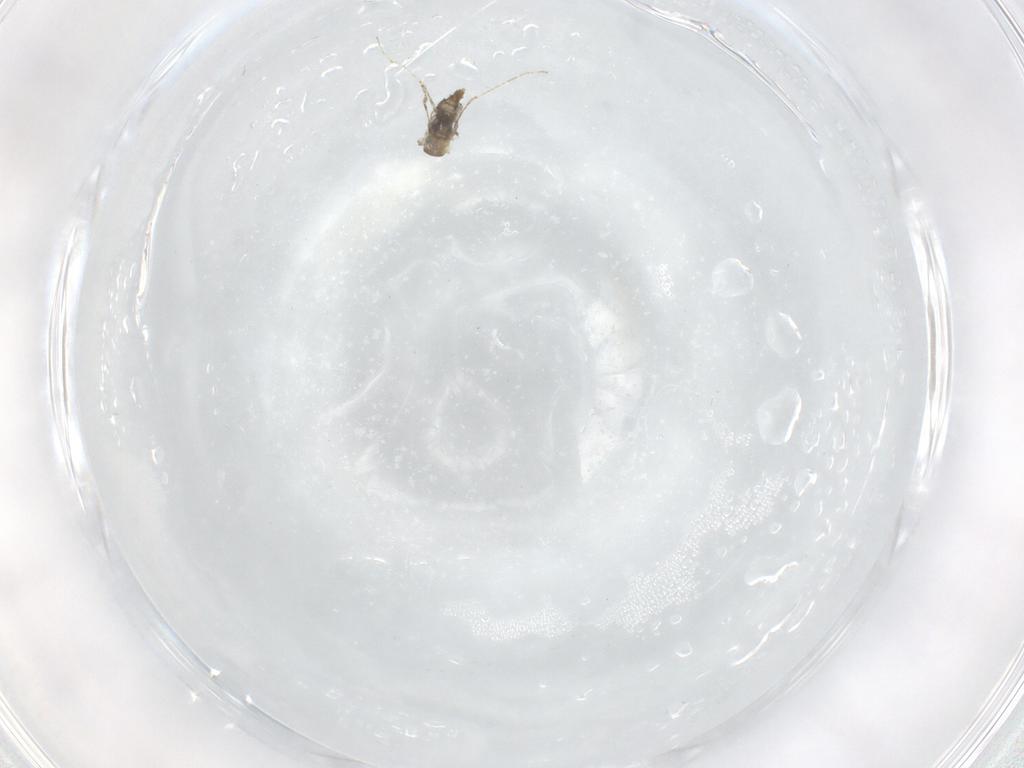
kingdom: Animalia
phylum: Arthropoda
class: Insecta
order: Diptera
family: Cecidomyiidae
